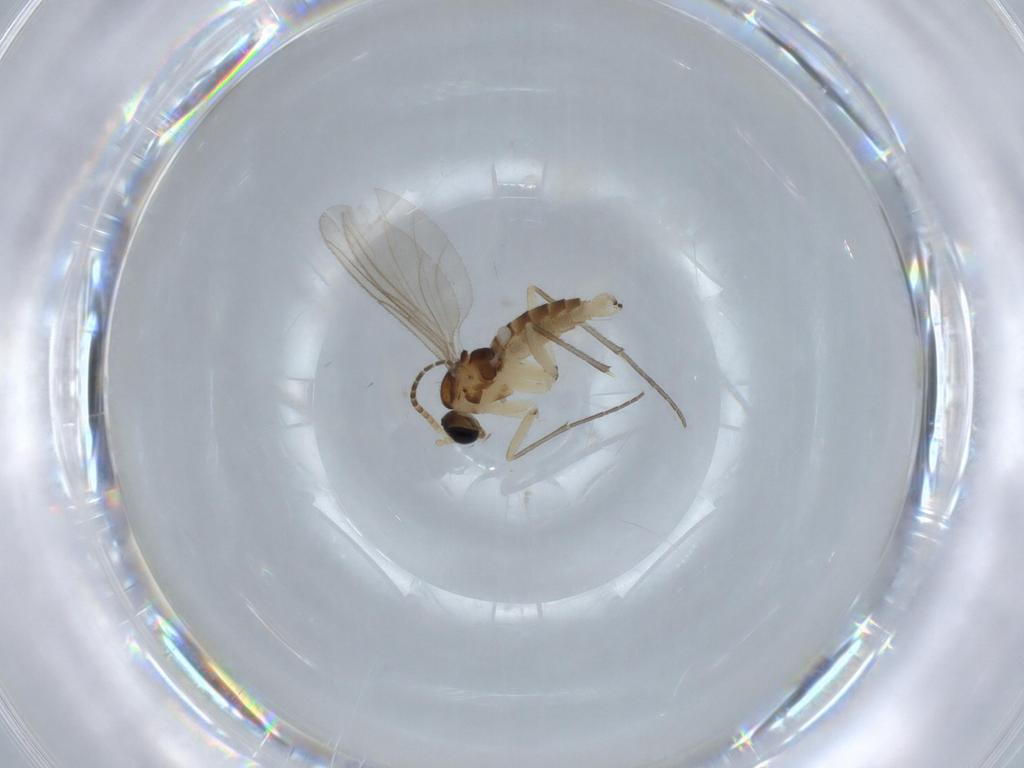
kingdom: Animalia
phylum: Arthropoda
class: Insecta
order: Diptera
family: Sciaridae
